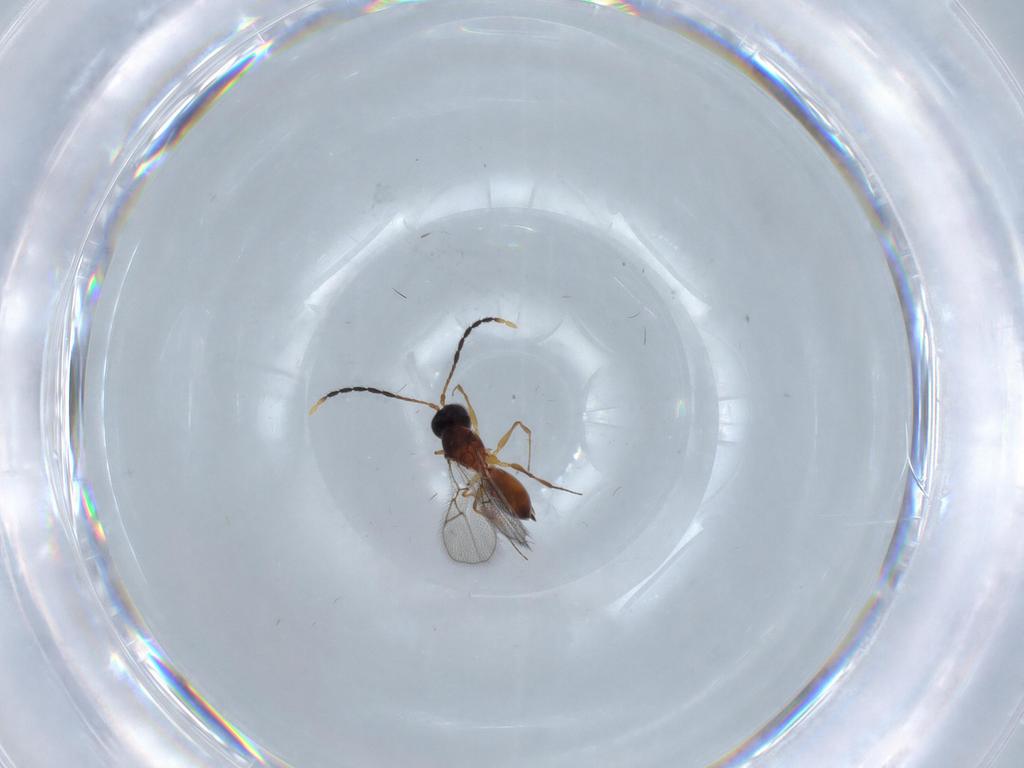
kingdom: Animalia
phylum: Arthropoda
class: Insecta
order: Hymenoptera
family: Figitidae
